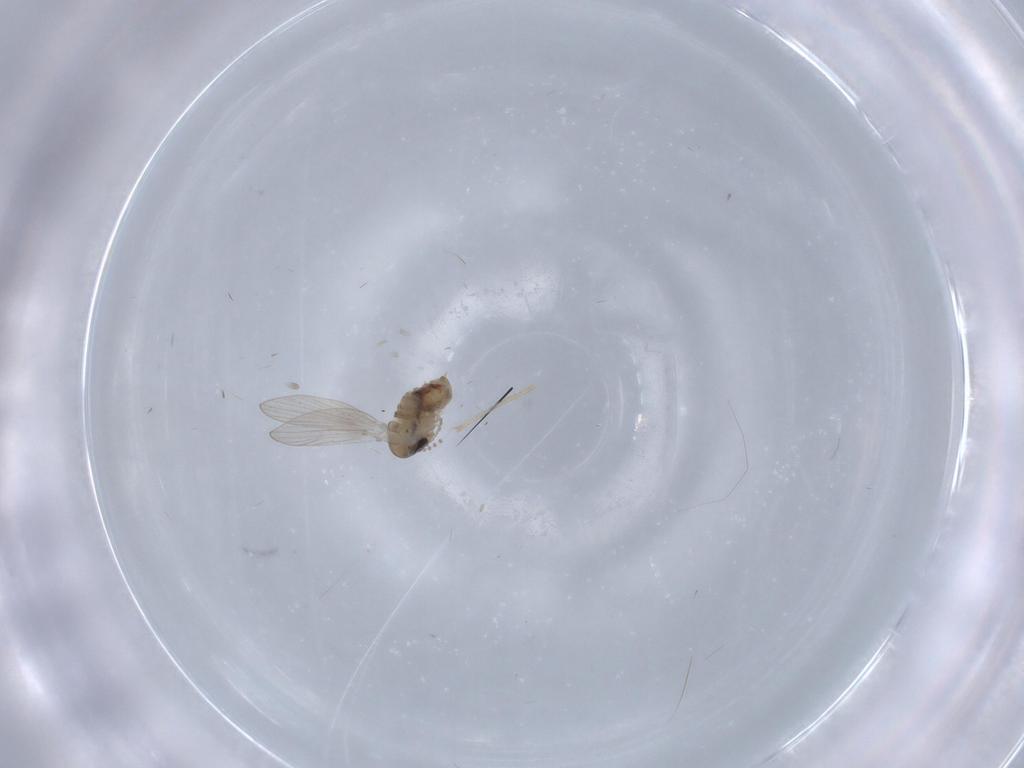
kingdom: Animalia
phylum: Arthropoda
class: Insecta
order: Diptera
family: Psychodidae
